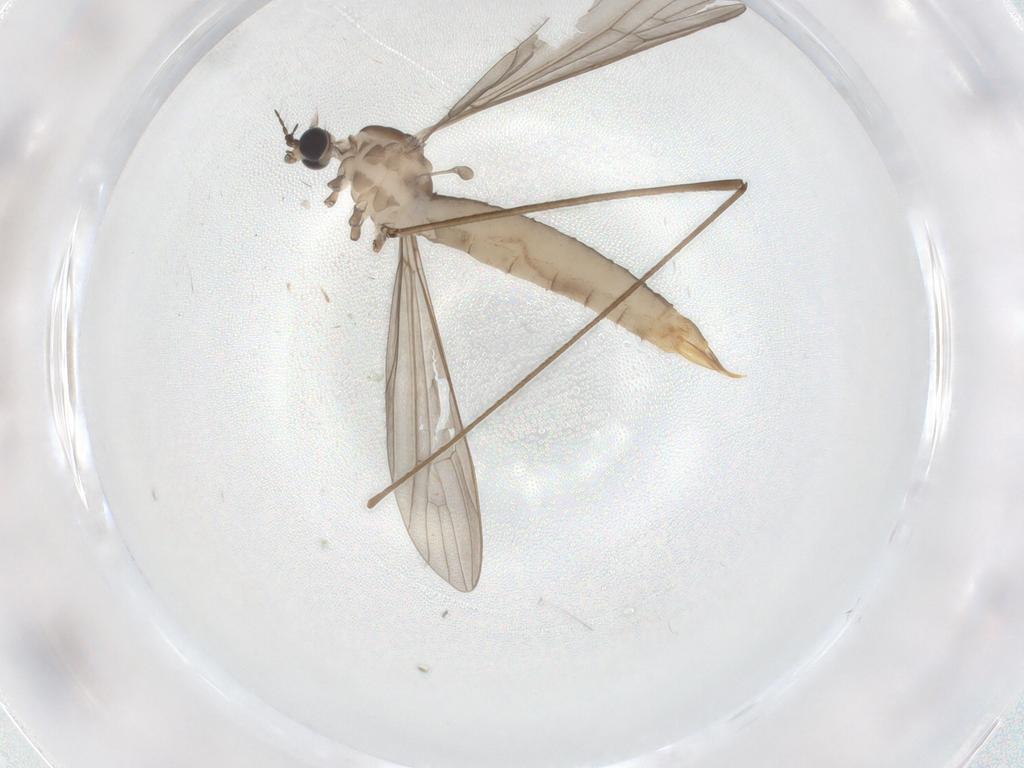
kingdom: Animalia
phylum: Arthropoda
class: Insecta
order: Diptera
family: Limoniidae
